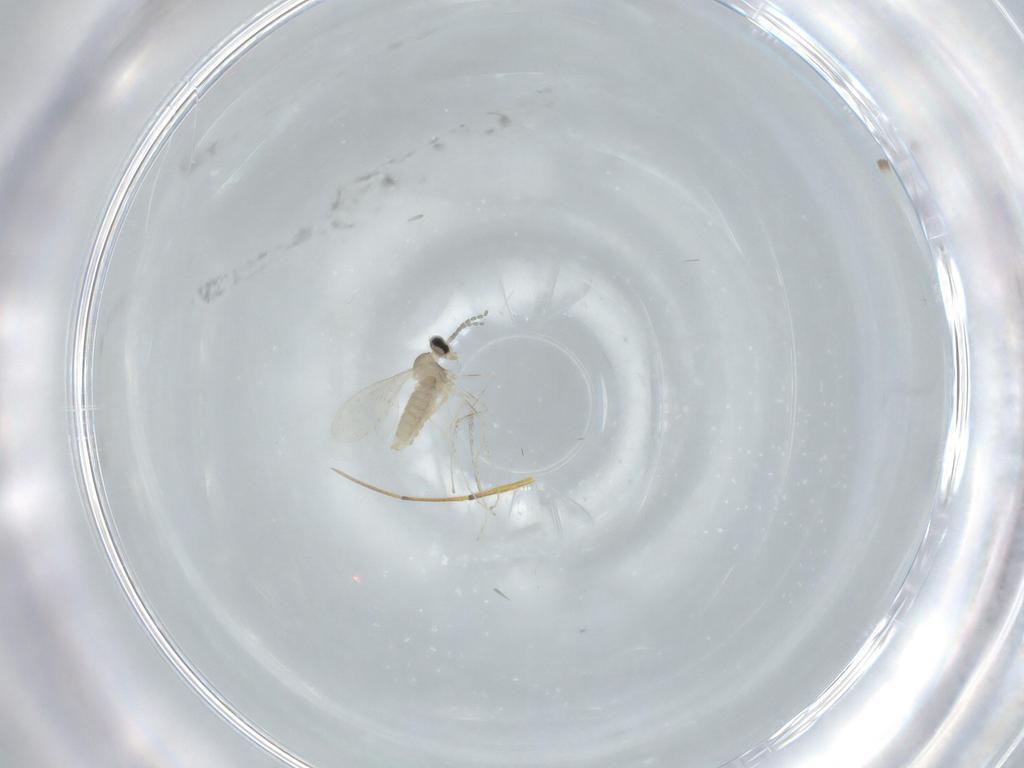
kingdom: Animalia
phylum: Arthropoda
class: Insecta
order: Diptera
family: Cecidomyiidae
